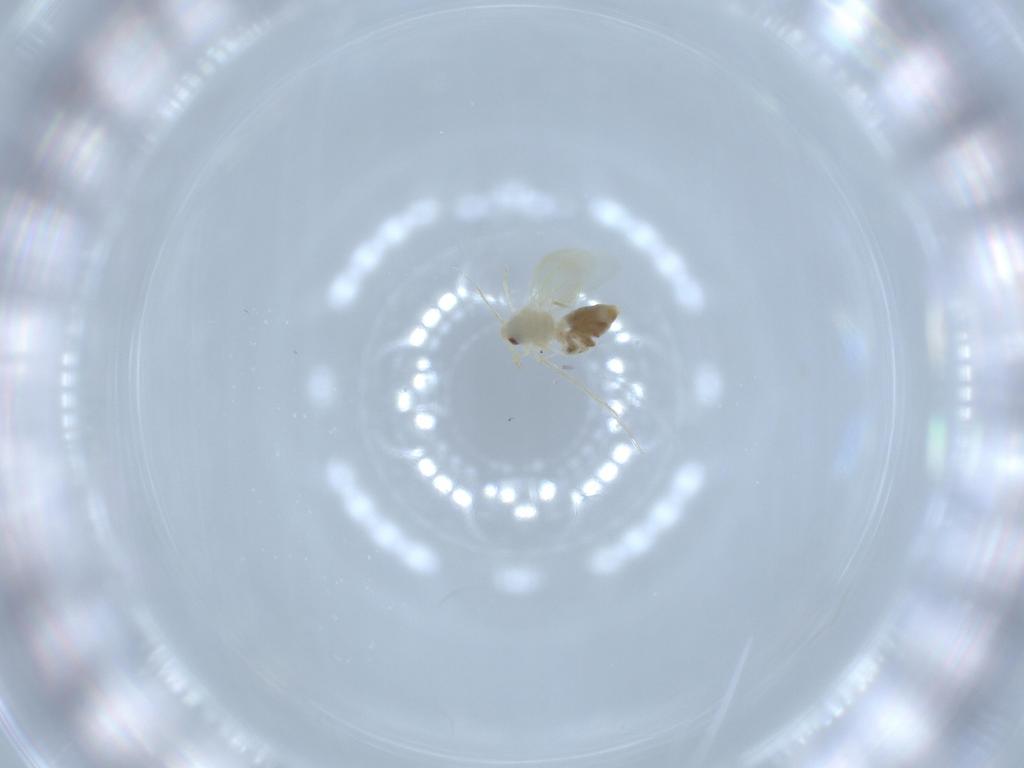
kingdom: Animalia
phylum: Arthropoda
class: Insecta
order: Hemiptera
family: Aleyrodidae
